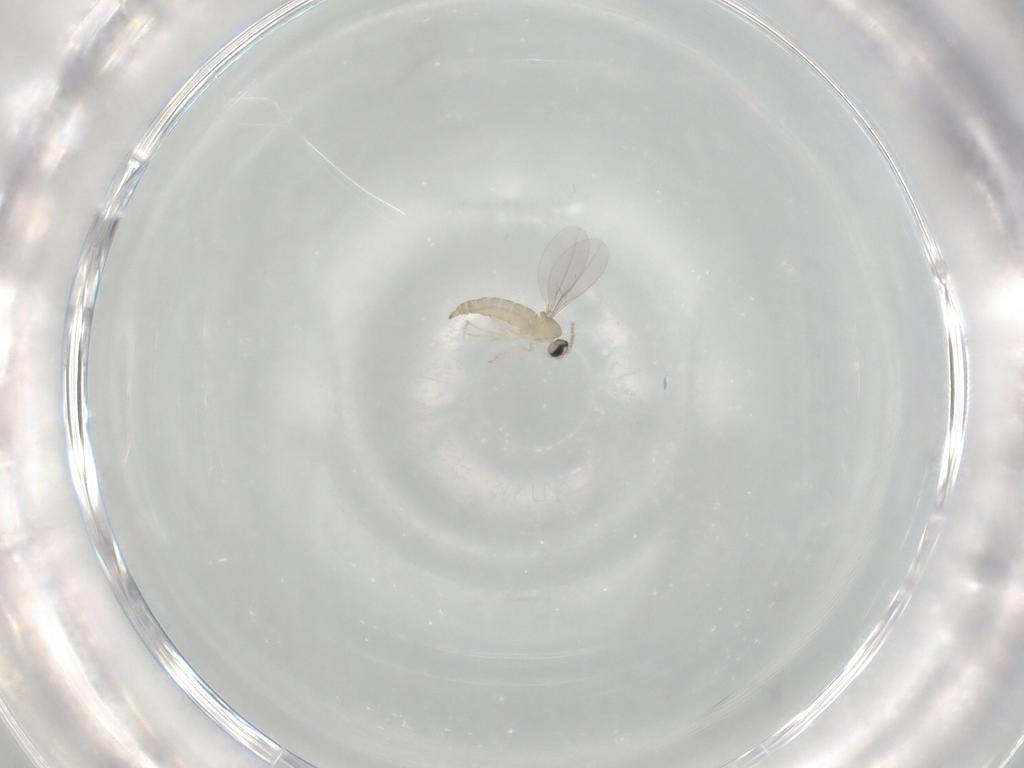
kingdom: Animalia
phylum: Arthropoda
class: Insecta
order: Diptera
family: Cecidomyiidae
